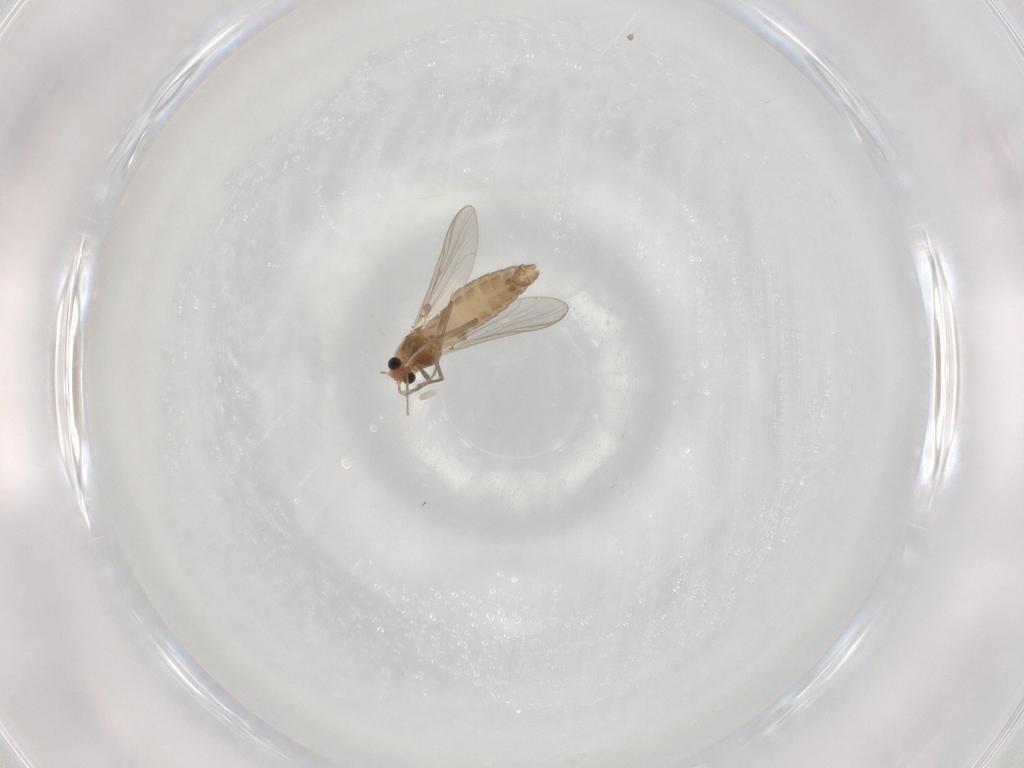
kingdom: Animalia
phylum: Arthropoda
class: Insecta
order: Diptera
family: Chironomidae
